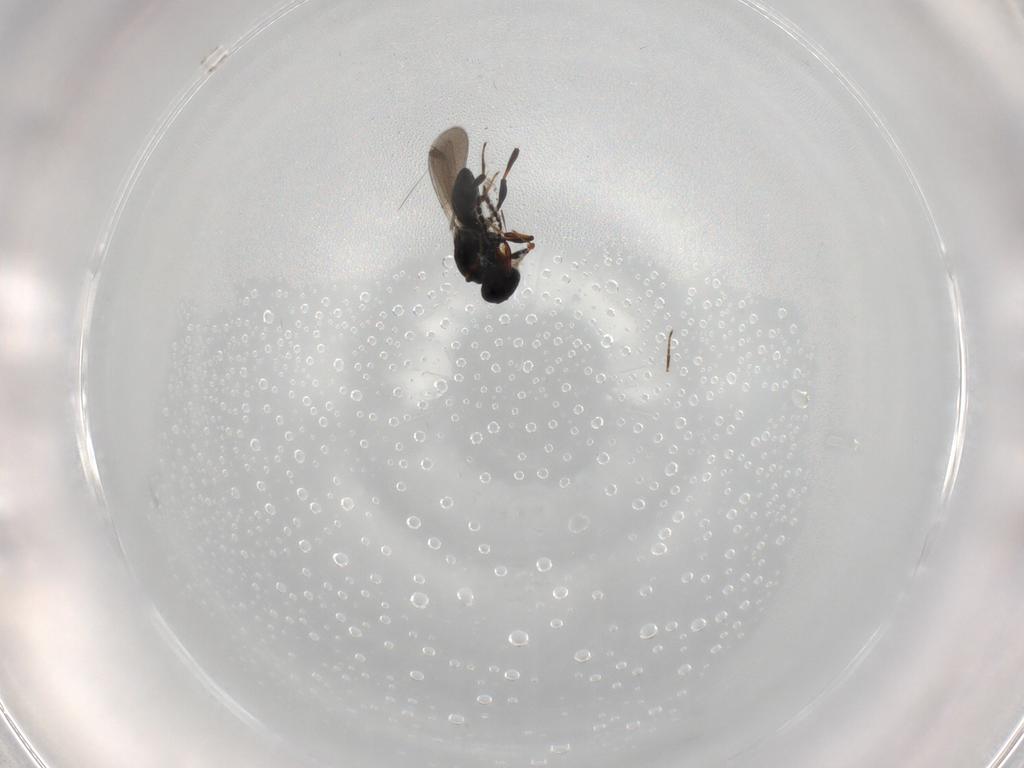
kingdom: Animalia
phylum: Arthropoda
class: Insecta
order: Hymenoptera
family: Platygastridae
